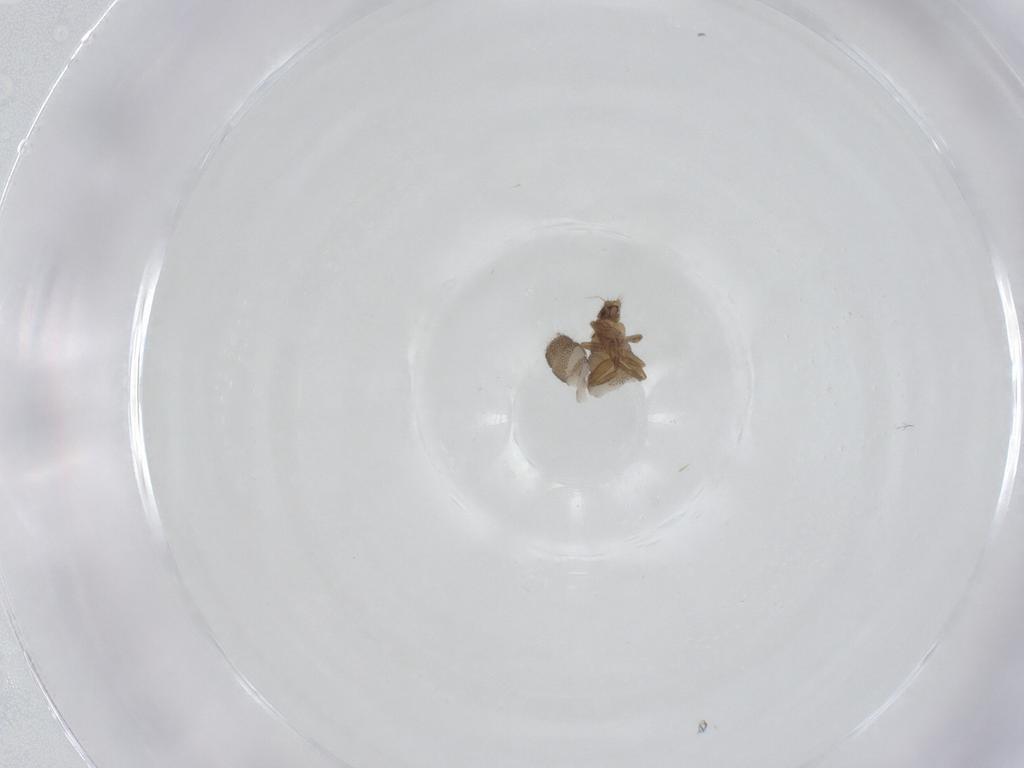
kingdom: Animalia
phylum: Arthropoda
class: Insecta
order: Diptera
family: Phoridae
